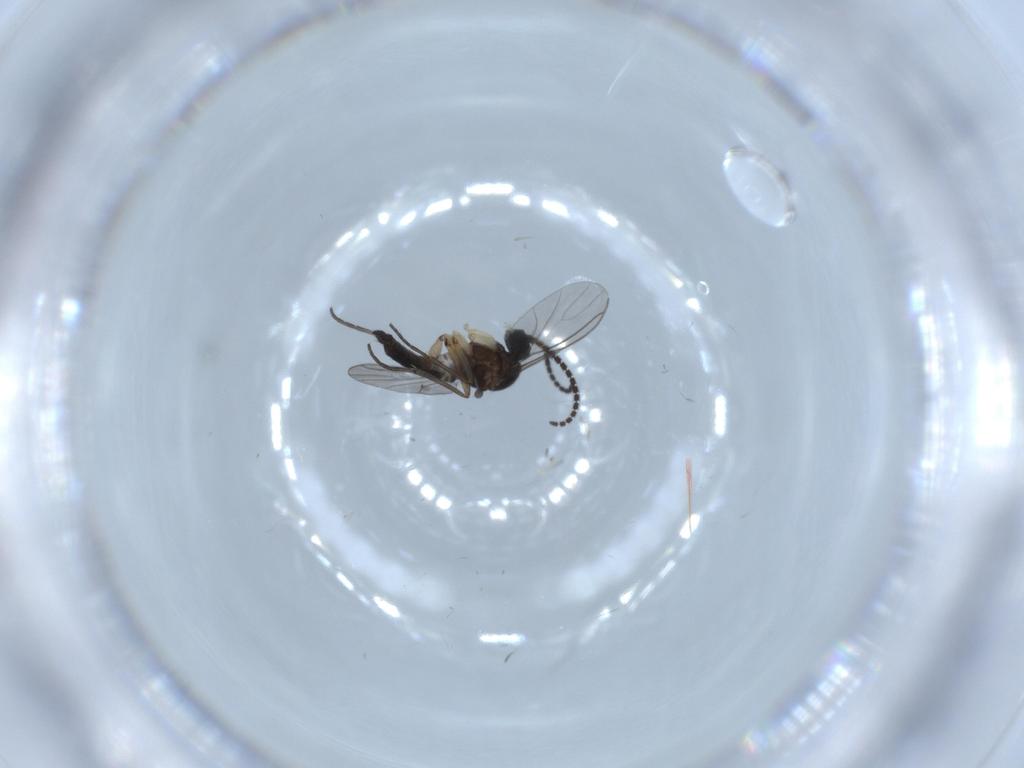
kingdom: Animalia
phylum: Arthropoda
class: Insecta
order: Diptera
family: Sciaridae
